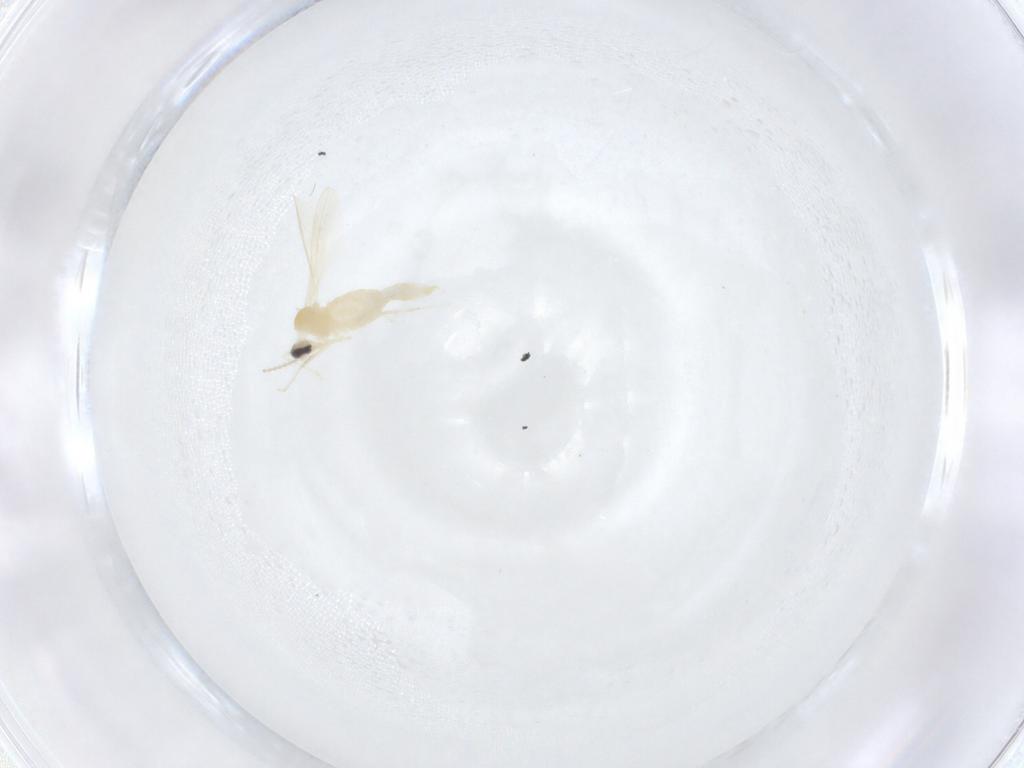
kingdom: Animalia
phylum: Arthropoda
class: Insecta
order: Diptera
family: Cecidomyiidae
